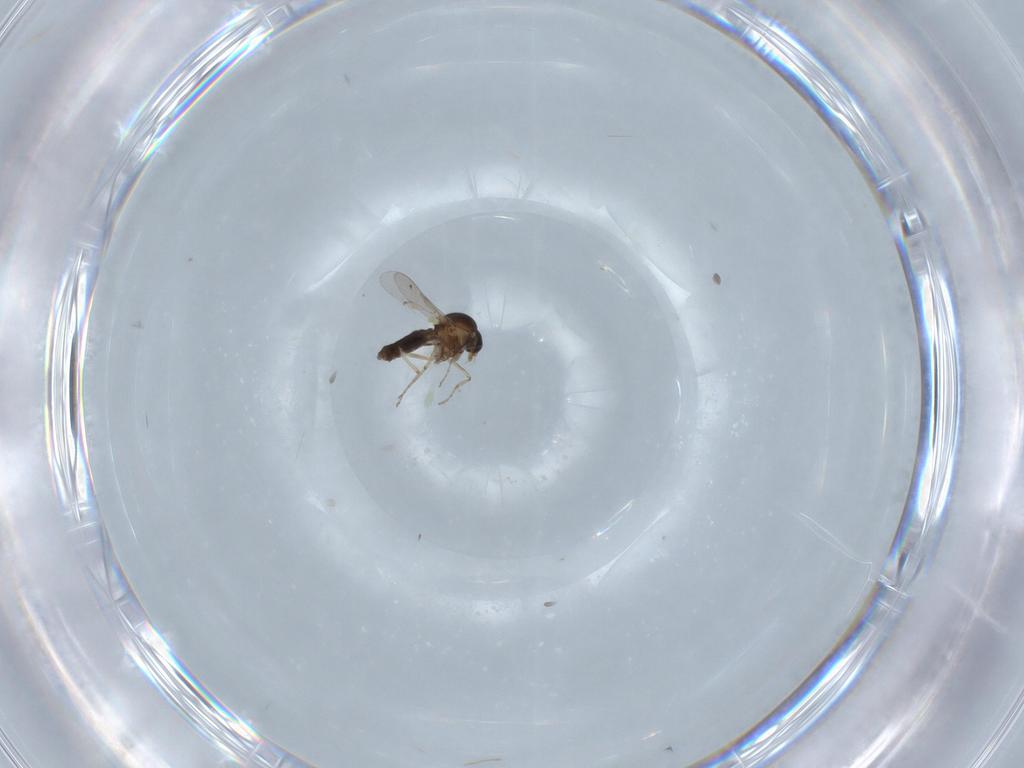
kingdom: Animalia
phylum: Arthropoda
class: Insecta
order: Diptera
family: Ceratopogonidae
